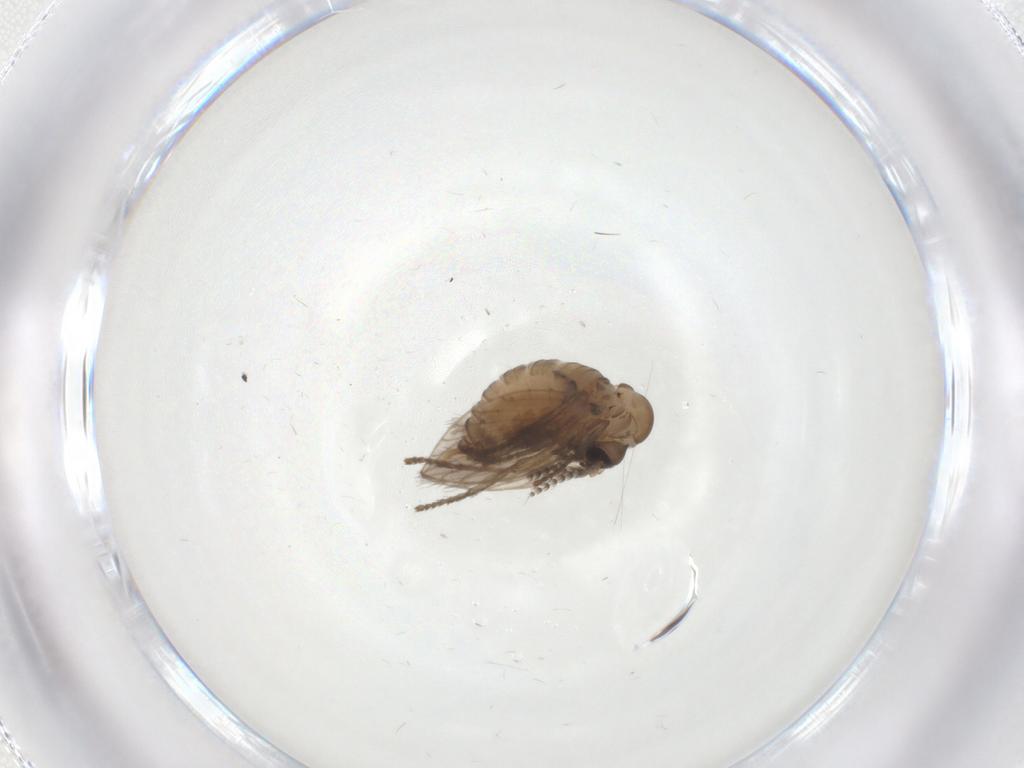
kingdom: Animalia
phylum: Arthropoda
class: Insecta
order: Diptera
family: Psychodidae
